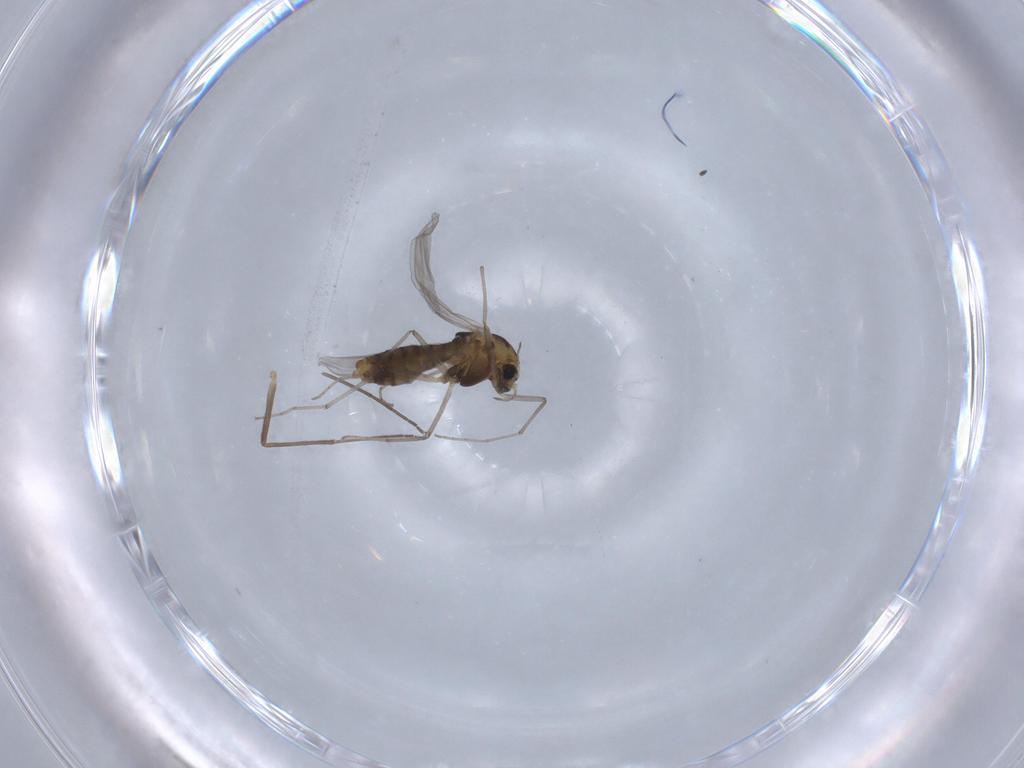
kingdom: Animalia
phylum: Arthropoda
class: Insecta
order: Diptera
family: Chironomidae
